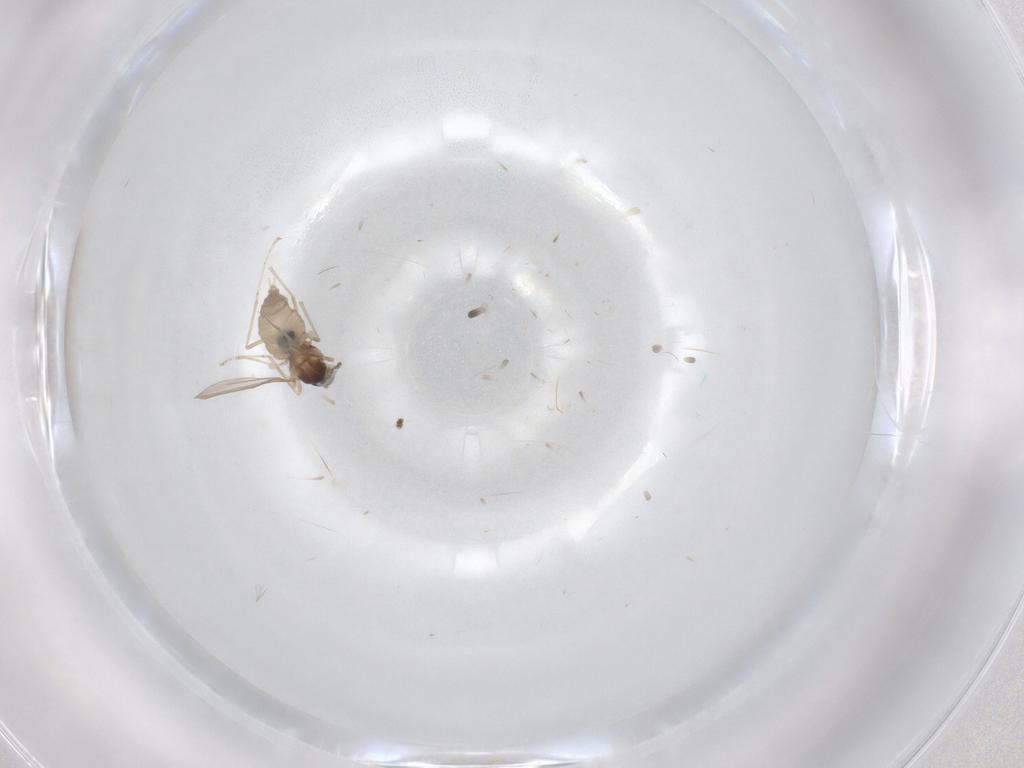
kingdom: Animalia
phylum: Arthropoda
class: Insecta
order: Diptera
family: Cecidomyiidae
